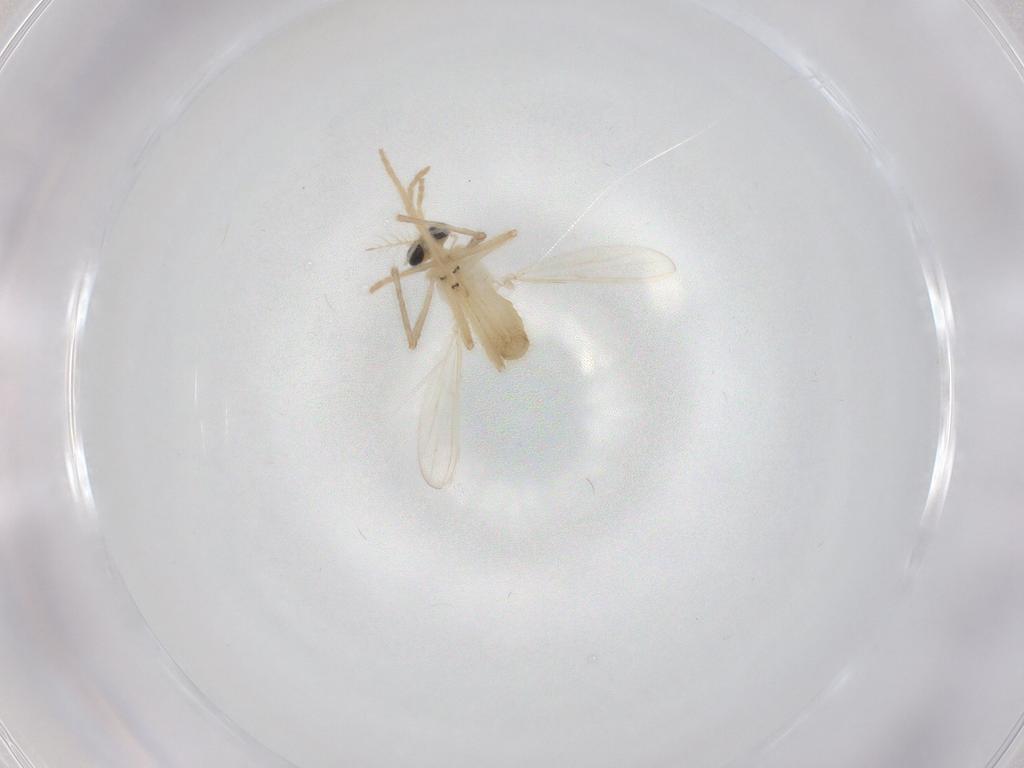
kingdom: Animalia
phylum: Arthropoda
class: Insecta
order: Diptera
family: Chironomidae
